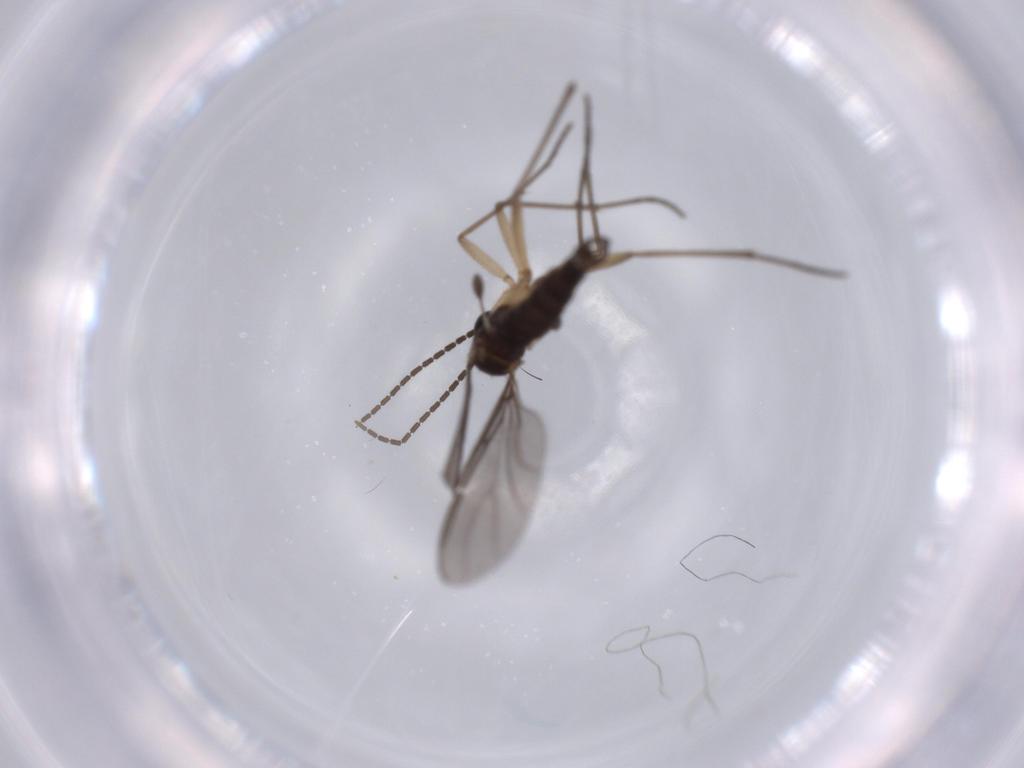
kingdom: Animalia
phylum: Arthropoda
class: Insecta
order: Diptera
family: Sciaridae
